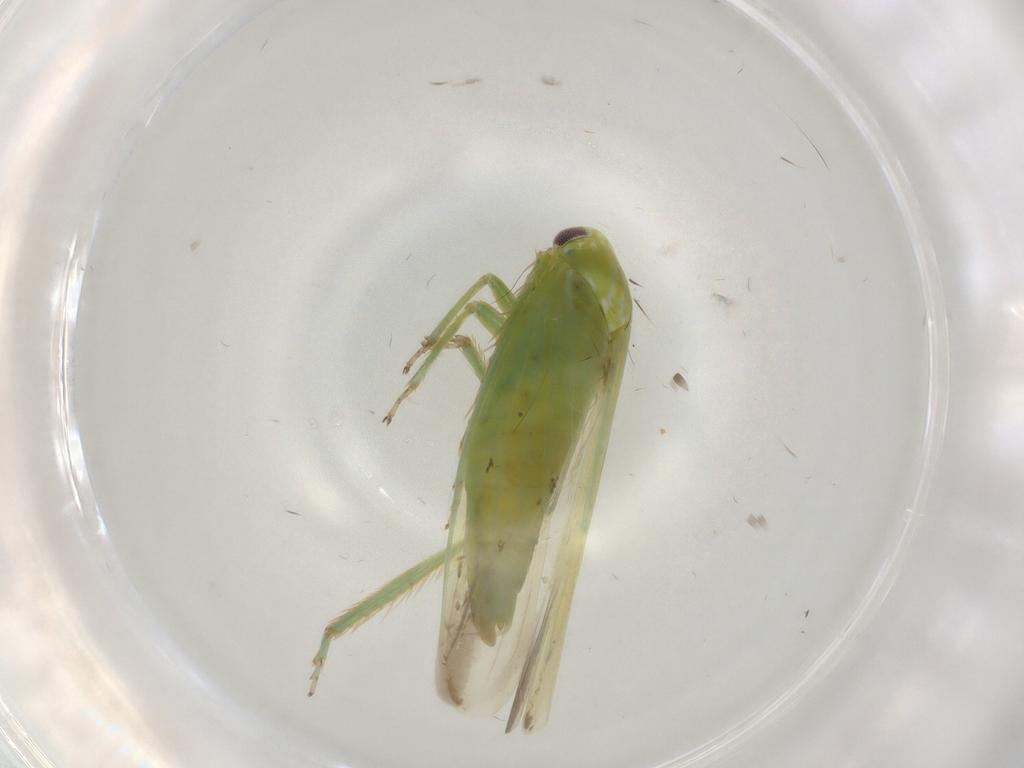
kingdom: Animalia
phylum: Arthropoda
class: Insecta
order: Hemiptera
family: Cicadellidae
